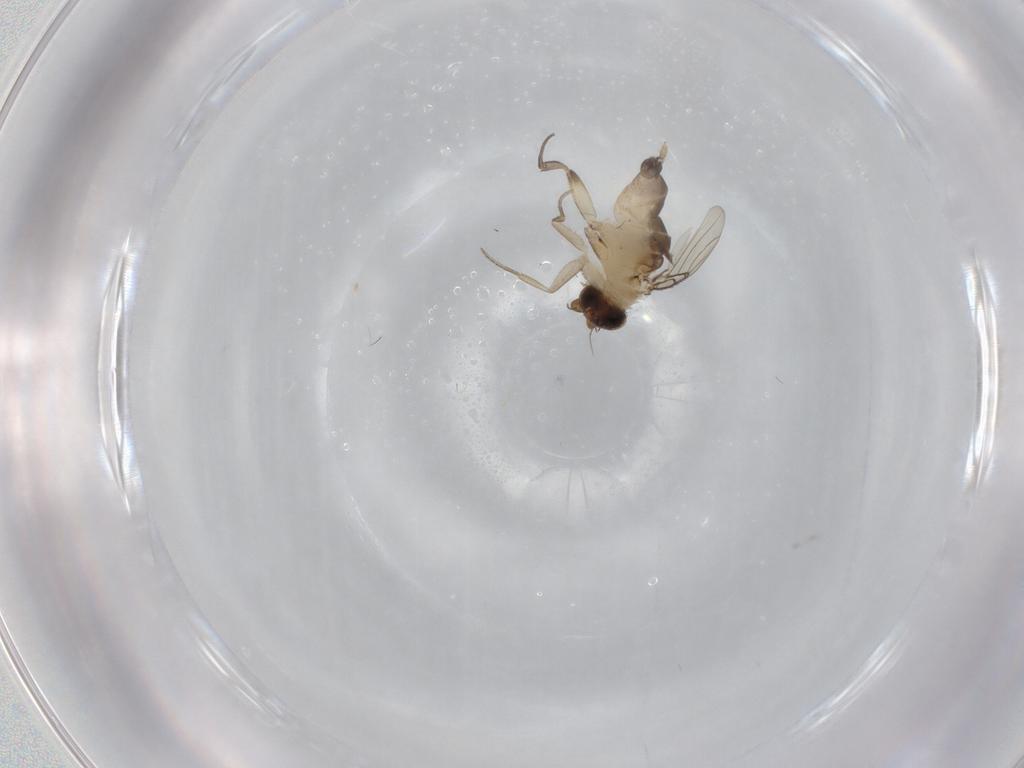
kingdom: Animalia
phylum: Arthropoda
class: Insecta
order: Diptera
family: Phoridae
